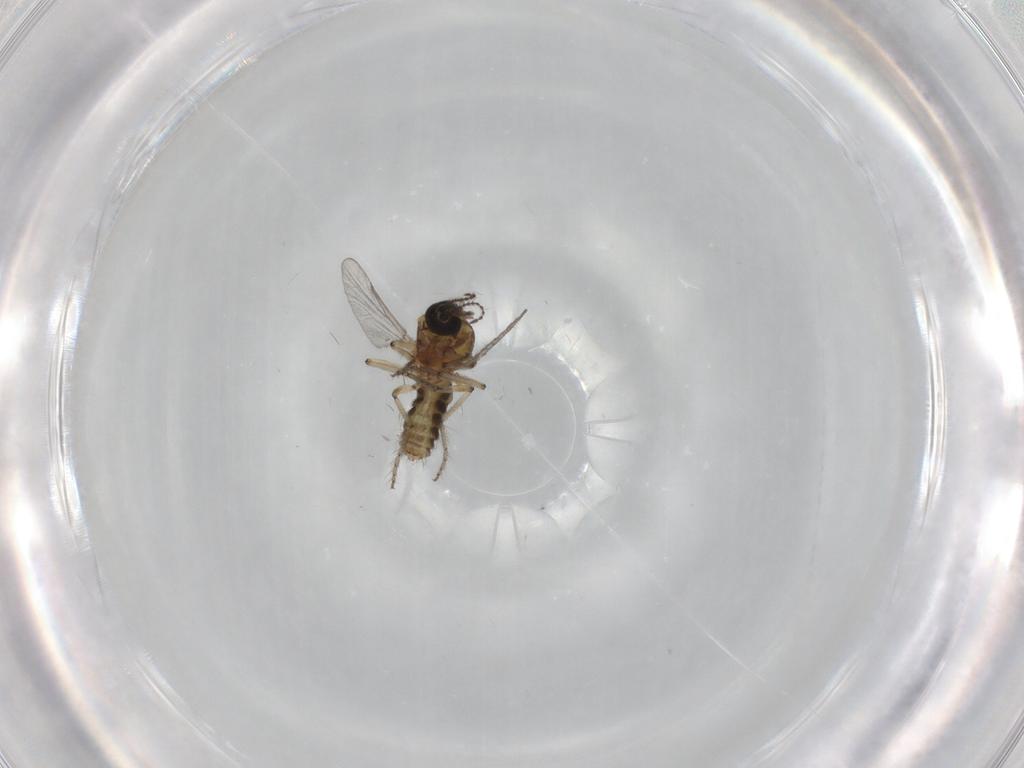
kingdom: Animalia
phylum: Arthropoda
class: Insecta
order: Diptera
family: Ceratopogonidae
